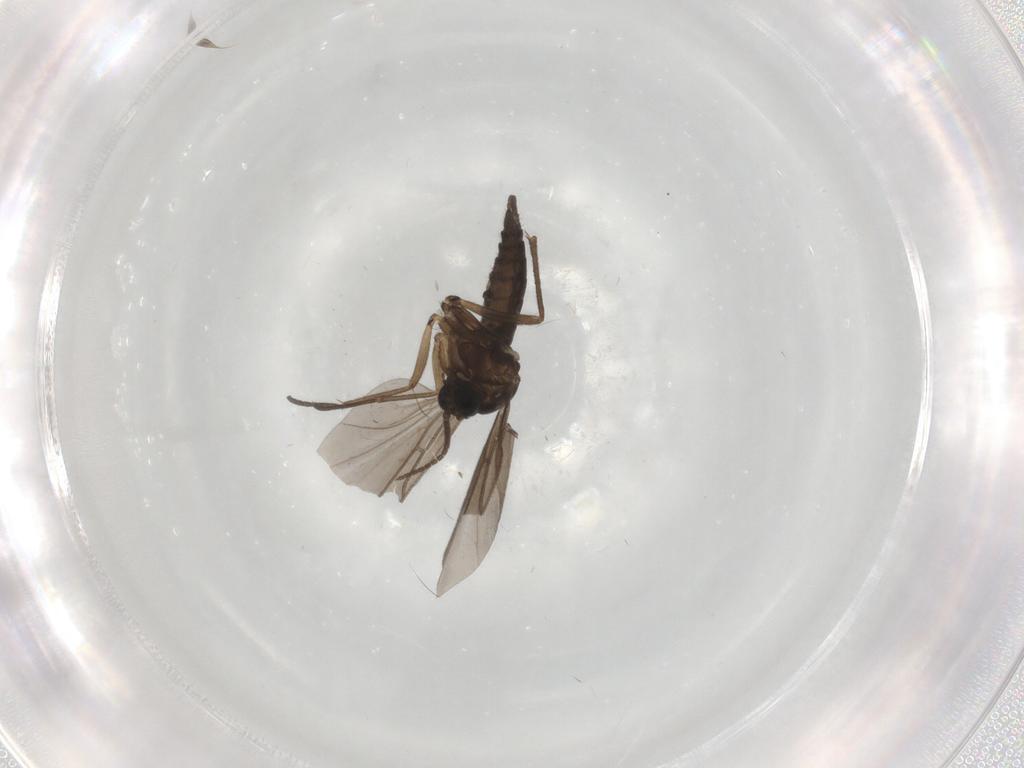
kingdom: Animalia
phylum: Arthropoda
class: Insecta
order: Diptera
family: Sciaridae
